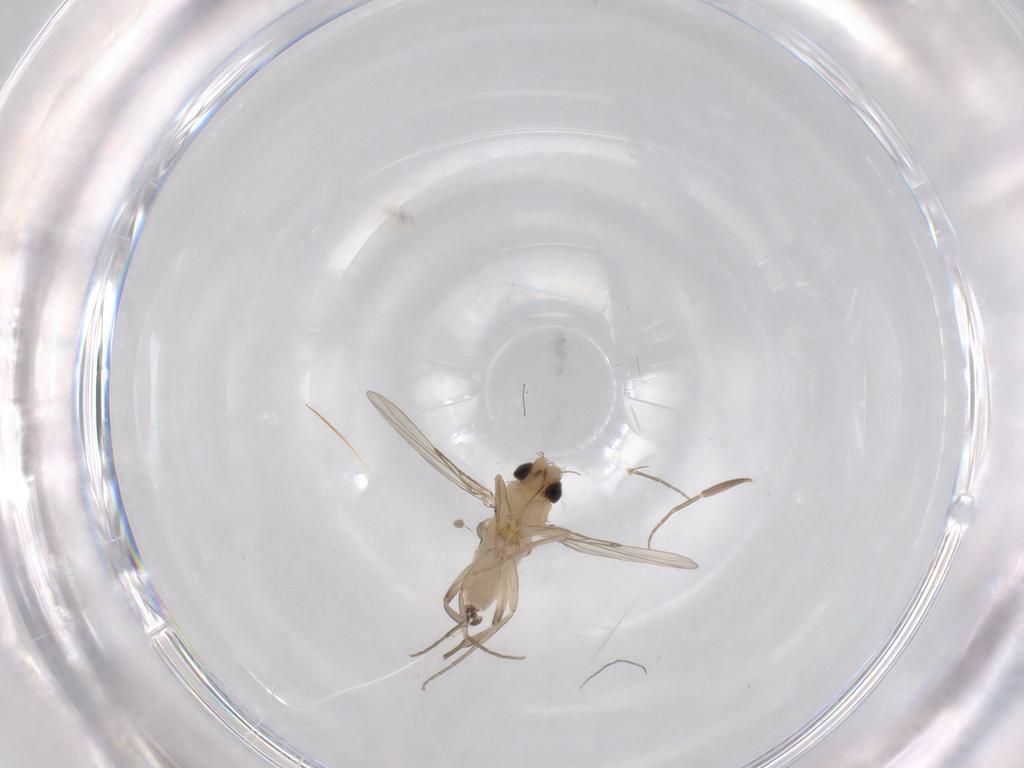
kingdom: Animalia
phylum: Arthropoda
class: Insecta
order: Diptera
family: Phoridae
